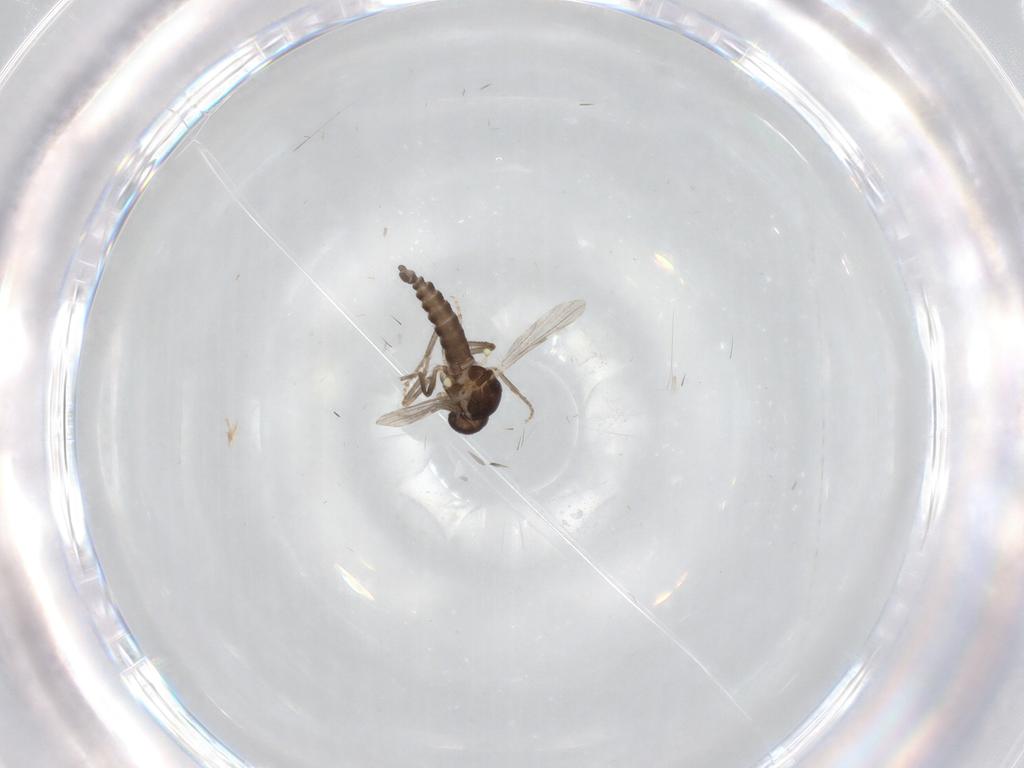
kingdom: Animalia
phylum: Arthropoda
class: Insecta
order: Diptera
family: Ceratopogonidae
